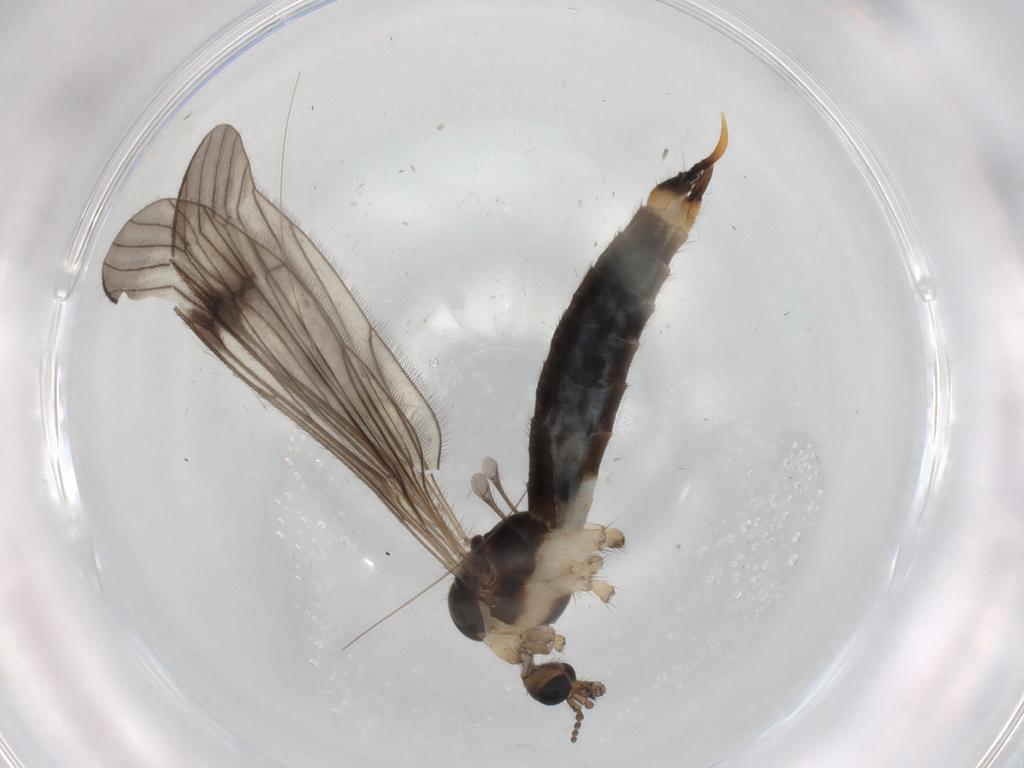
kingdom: Animalia
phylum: Arthropoda
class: Insecta
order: Diptera
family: Limoniidae
